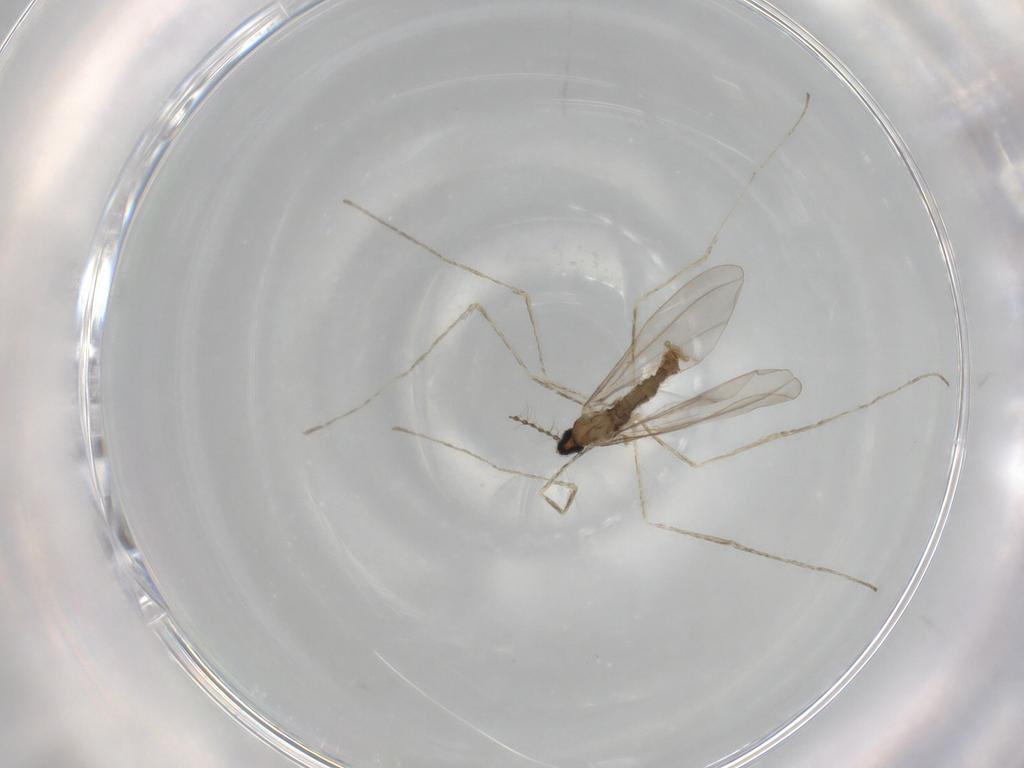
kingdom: Animalia
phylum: Arthropoda
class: Insecta
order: Diptera
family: Cecidomyiidae
